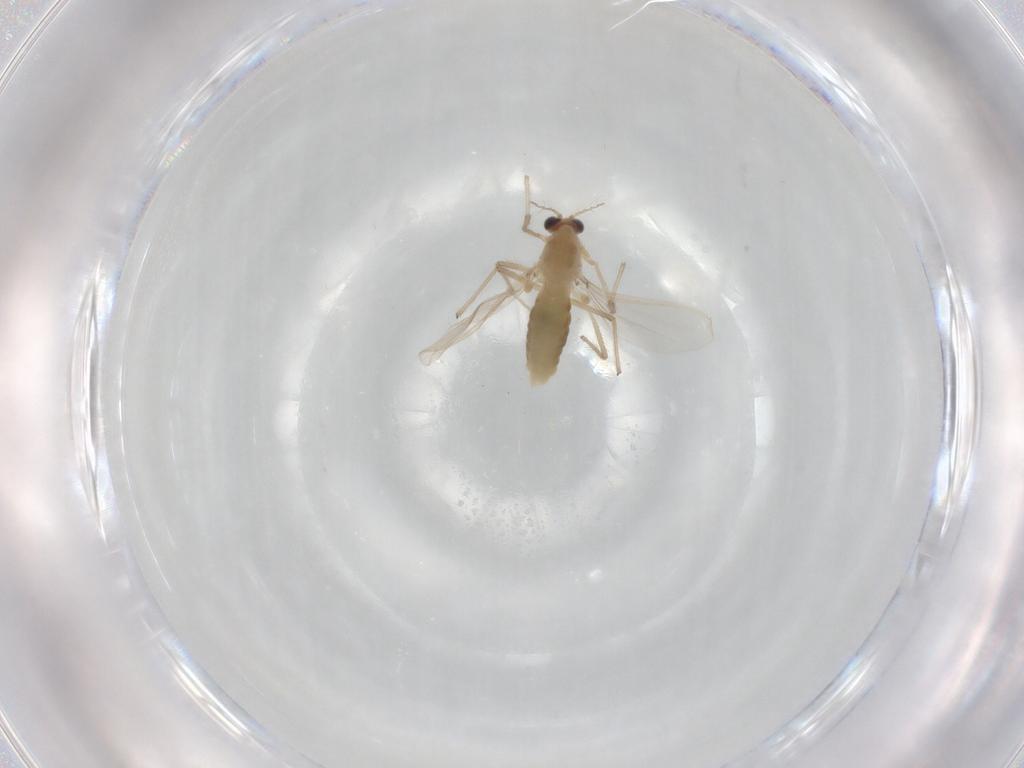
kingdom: Animalia
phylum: Arthropoda
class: Insecta
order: Diptera
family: Chironomidae
